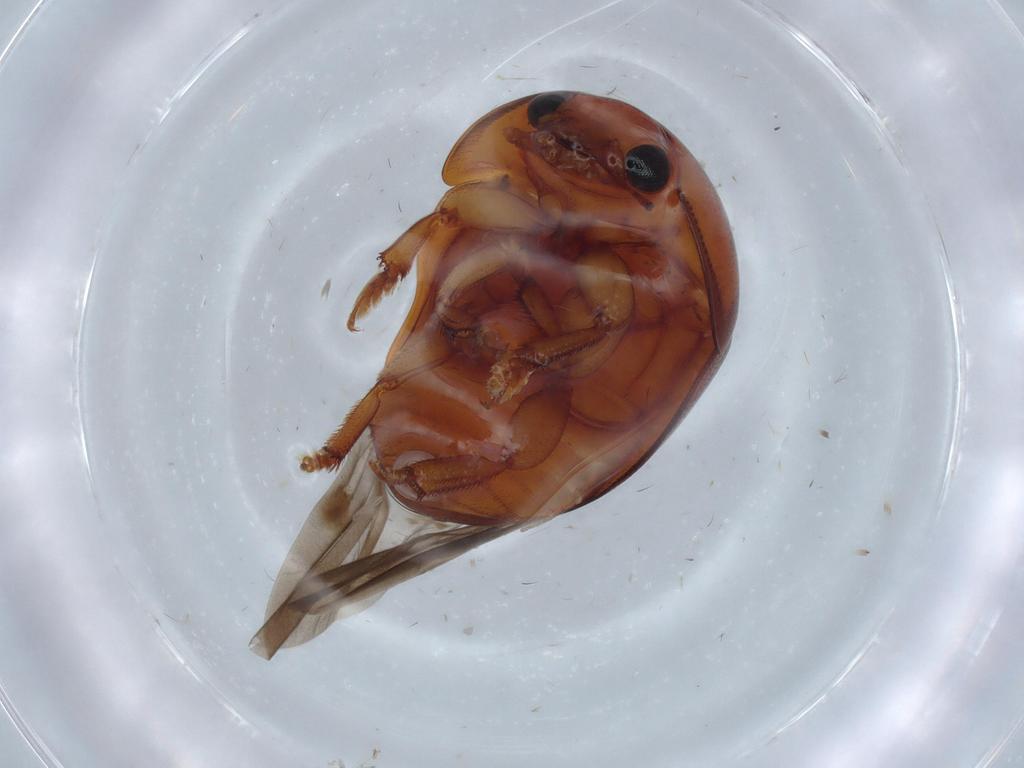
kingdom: Animalia
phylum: Arthropoda
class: Insecta
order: Coleoptera
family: Nitidulidae
